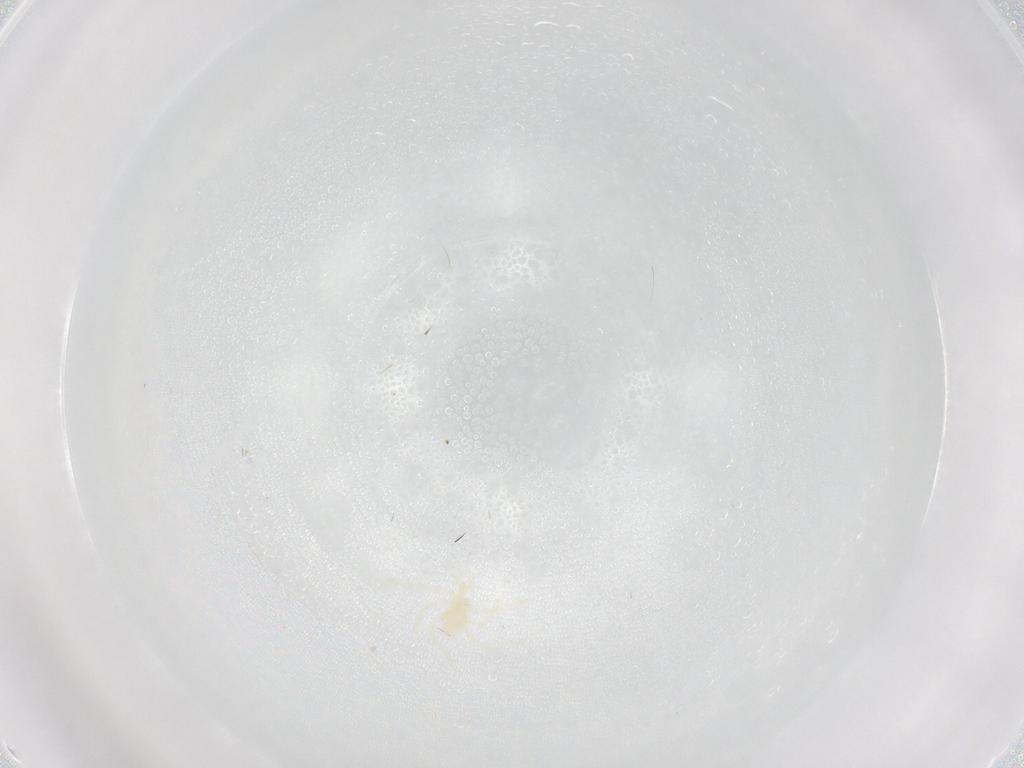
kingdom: Animalia
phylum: Arthropoda
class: Arachnida
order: Trombidiformes
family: Erythraeidae
